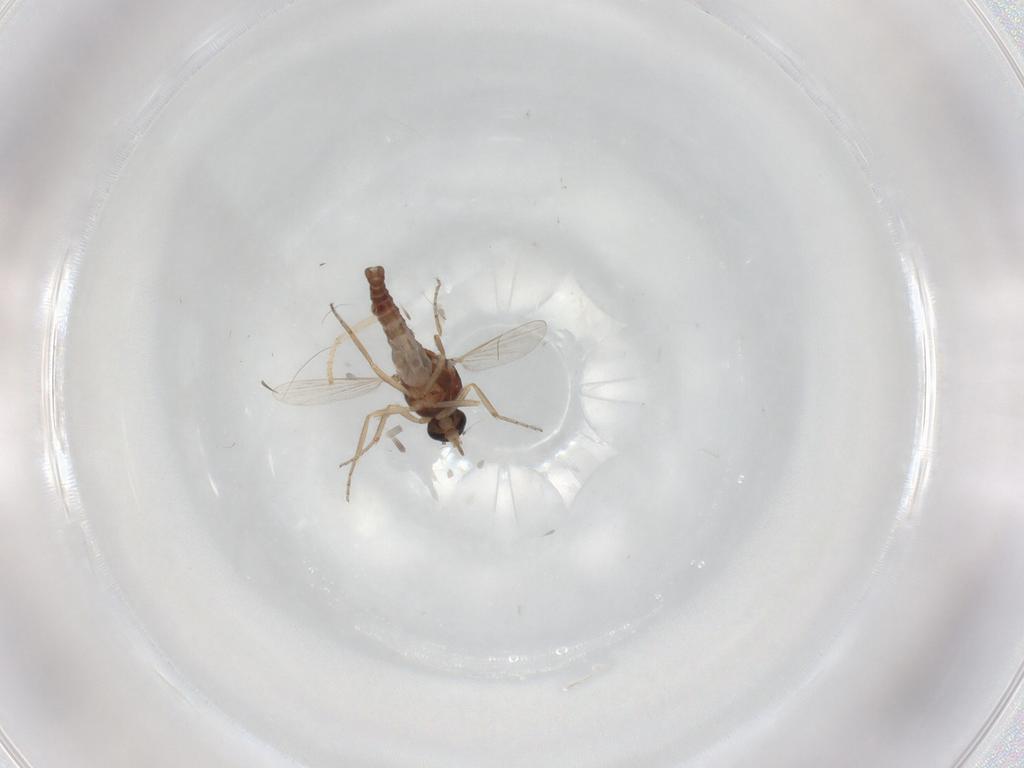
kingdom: Animalia
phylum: Arthropoda
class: Insecta
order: Diptera
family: Ceratopogonidae
